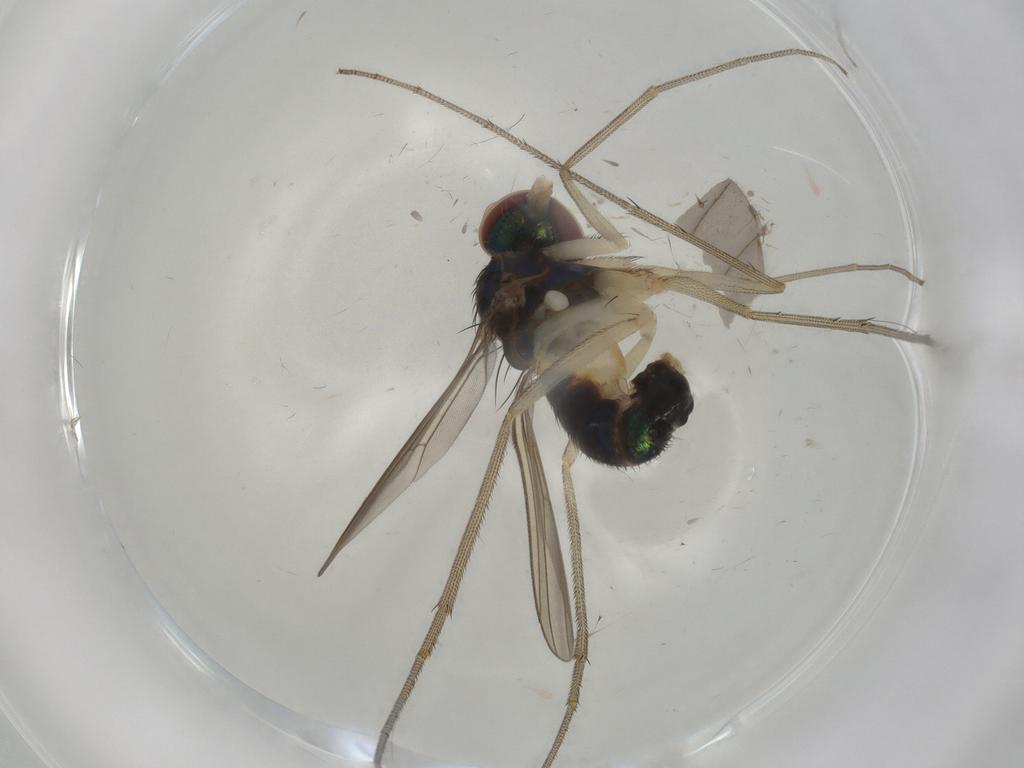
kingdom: Animalia
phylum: Arthropoda
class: Insecta
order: Diptera
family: Dolichopodidae
